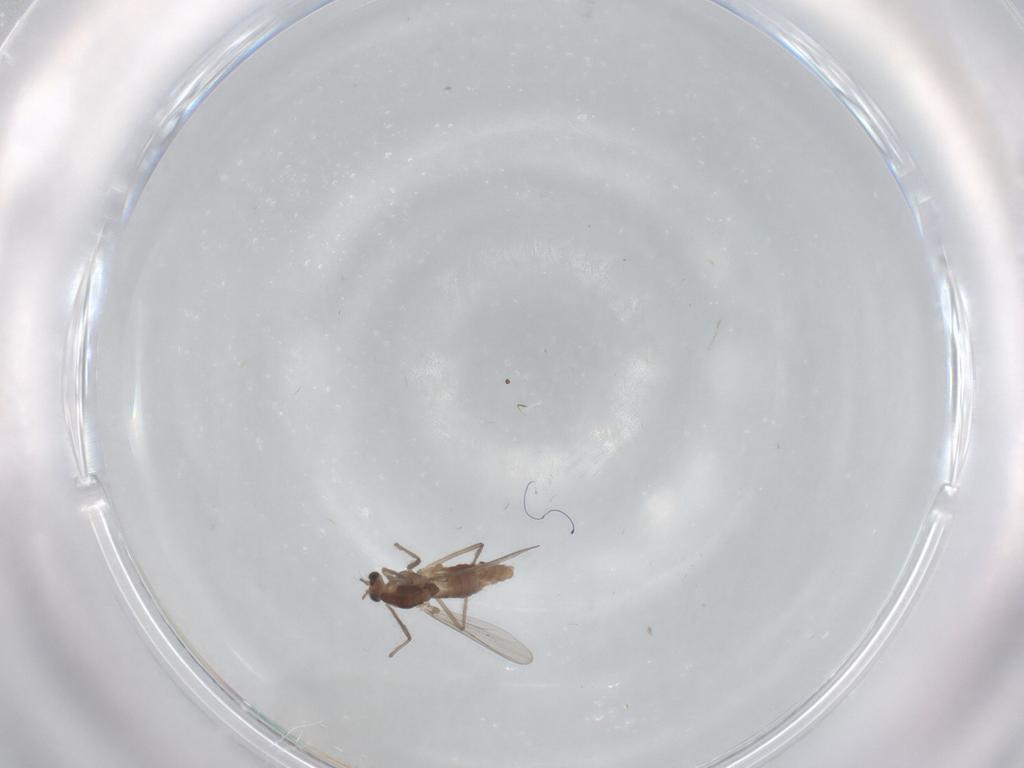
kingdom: Animalia
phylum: Arthropoda
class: Insecta
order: Diptera
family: Chironomidae
